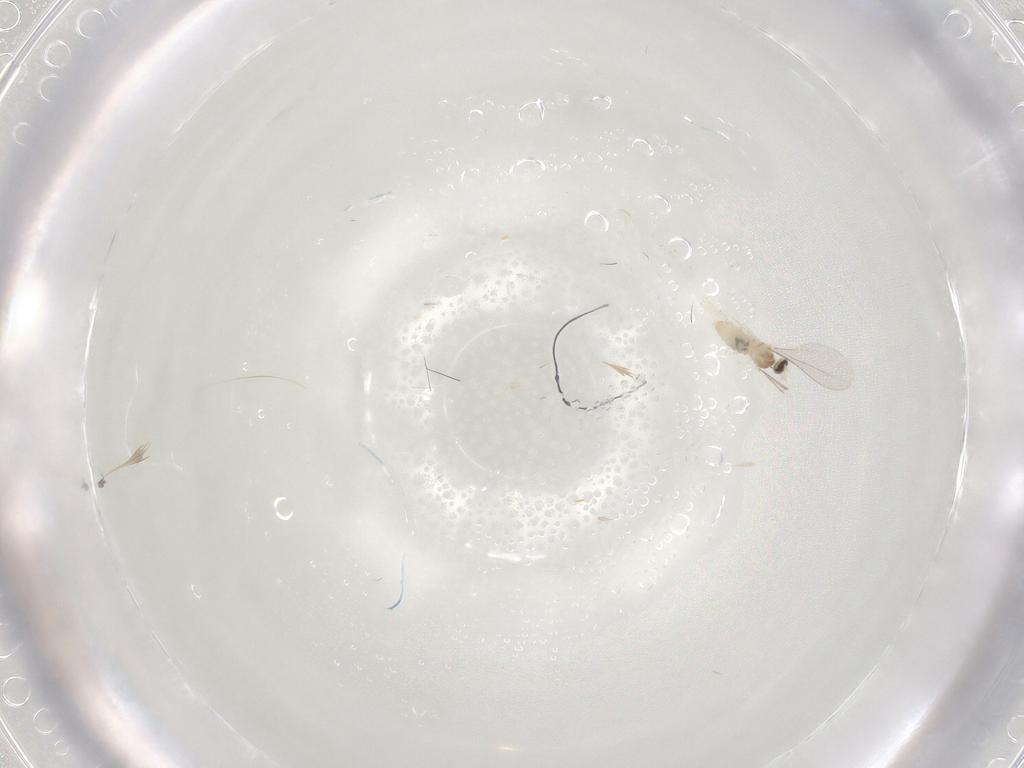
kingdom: Animalia
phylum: Arthropoda
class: Insecta
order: Diptera
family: Cecidomyiidae
